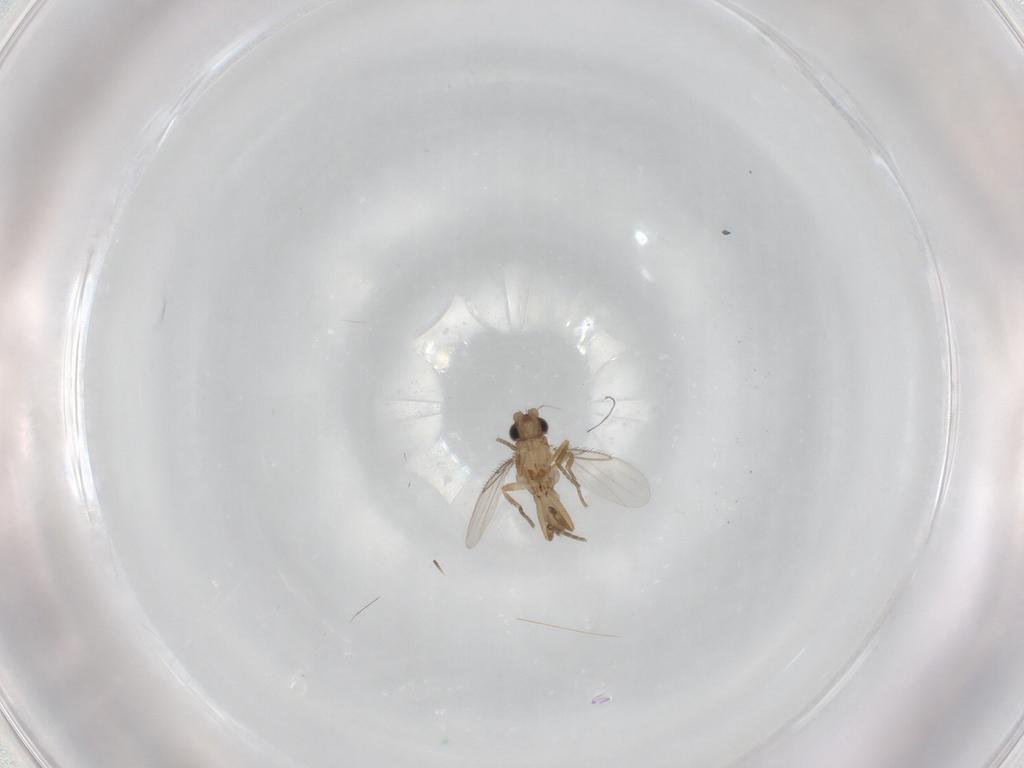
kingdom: Animalia
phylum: Arthropoda
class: Insecta
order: Diptera
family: Phoridae
